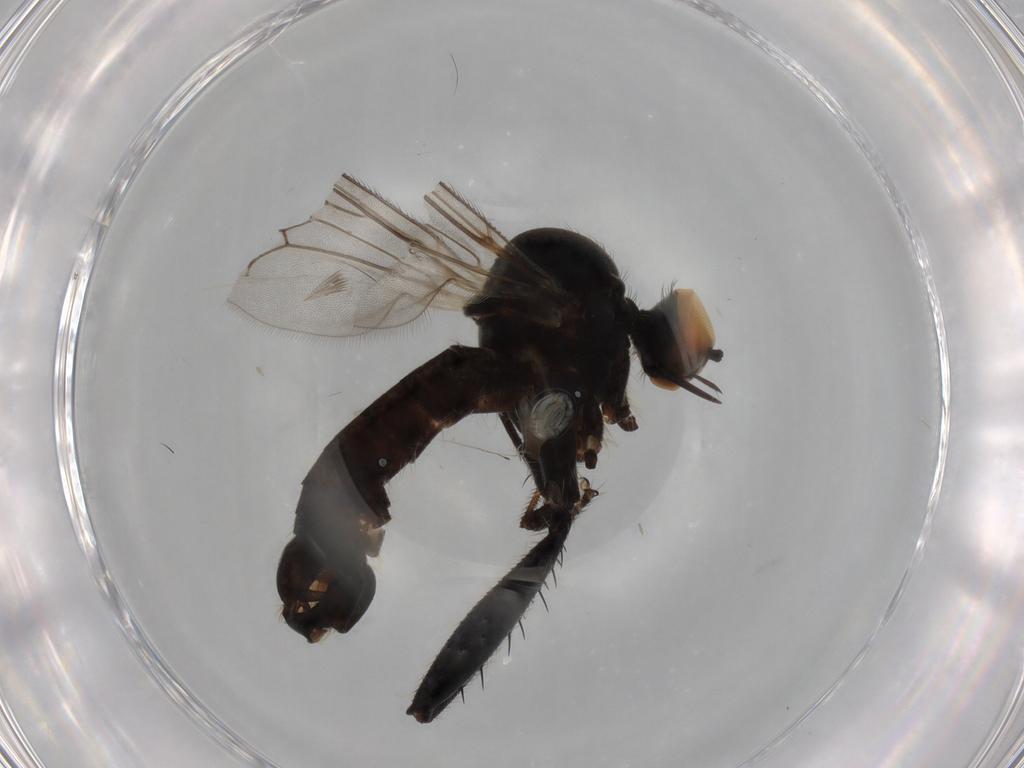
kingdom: Animalia
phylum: Arthropoda
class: Insecta
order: Diptera
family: Hybotidae
